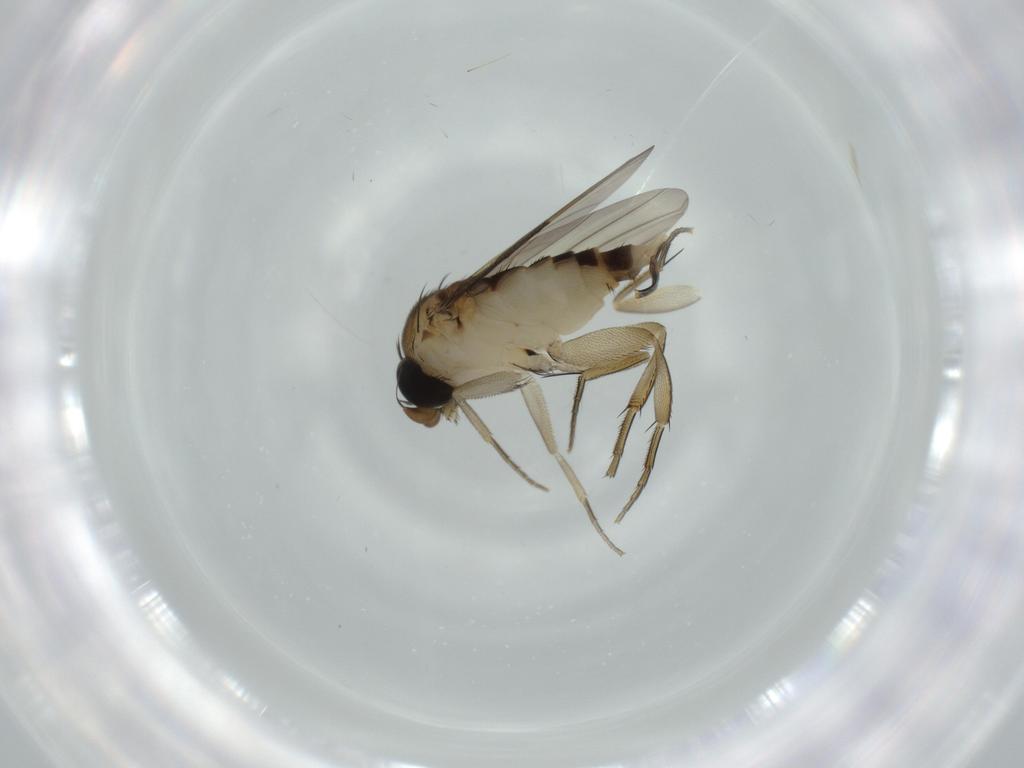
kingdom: Animalia
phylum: Arthropoda
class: Insecta
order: Diptera
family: Phoridae
